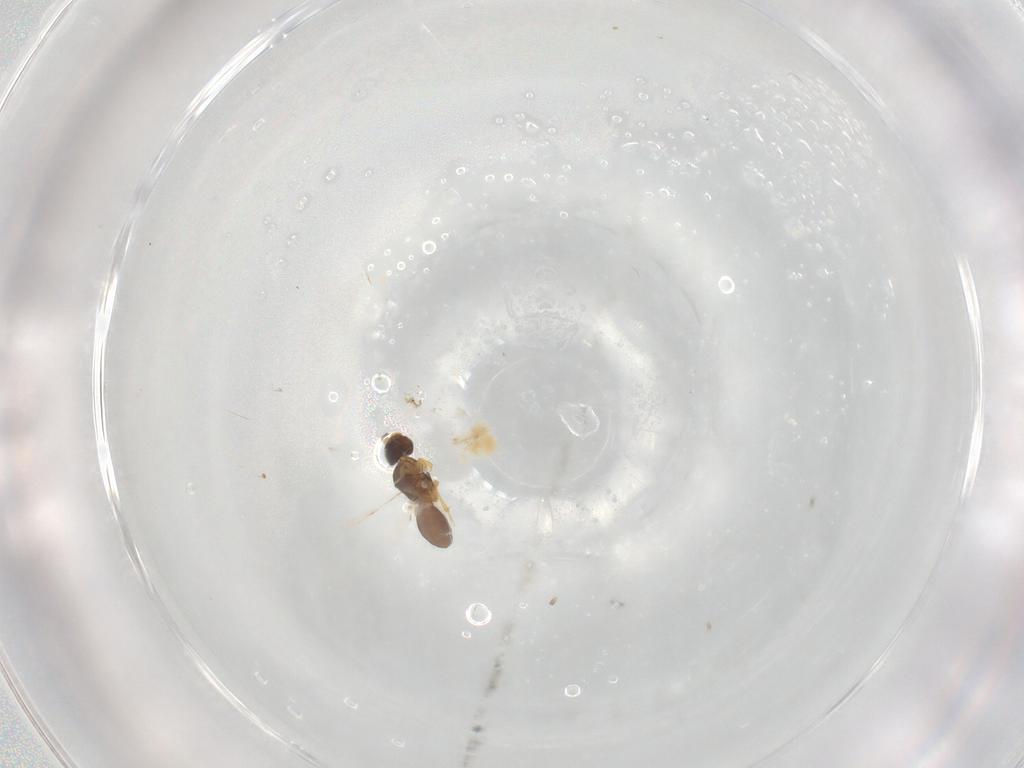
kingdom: Animalia
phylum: Arthropoda
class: Insecta
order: Hymenoptera
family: Braconidae
